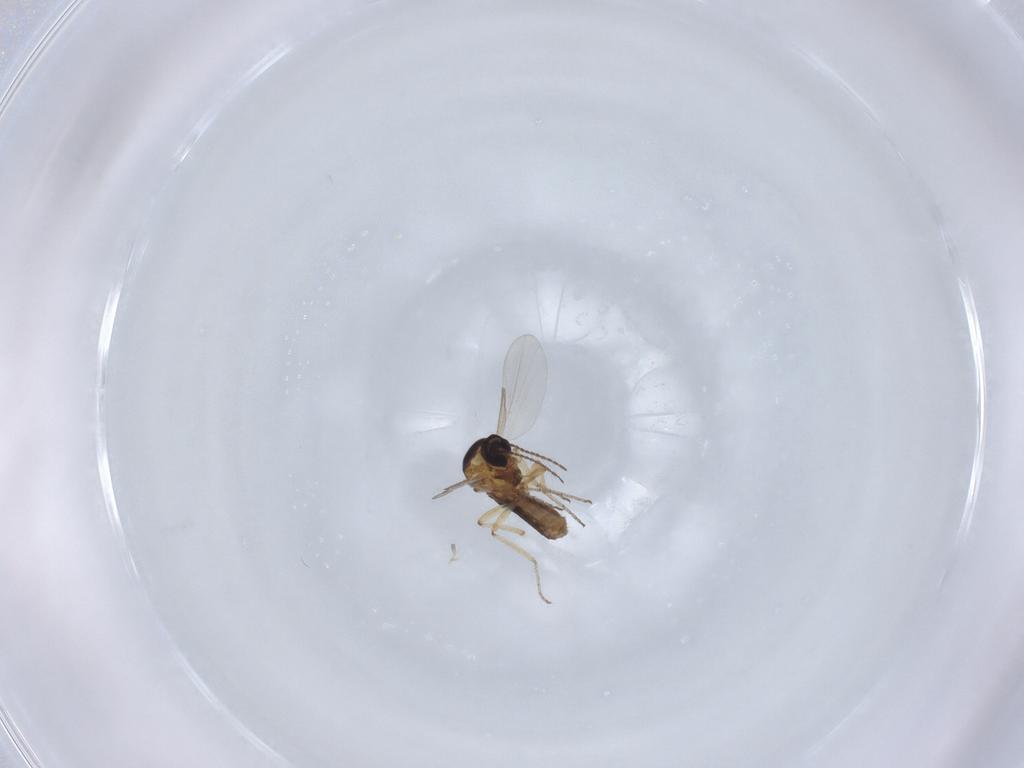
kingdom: Animalia
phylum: Arthropoda
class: Insecta
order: Diptera
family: Ceratopogonidae
